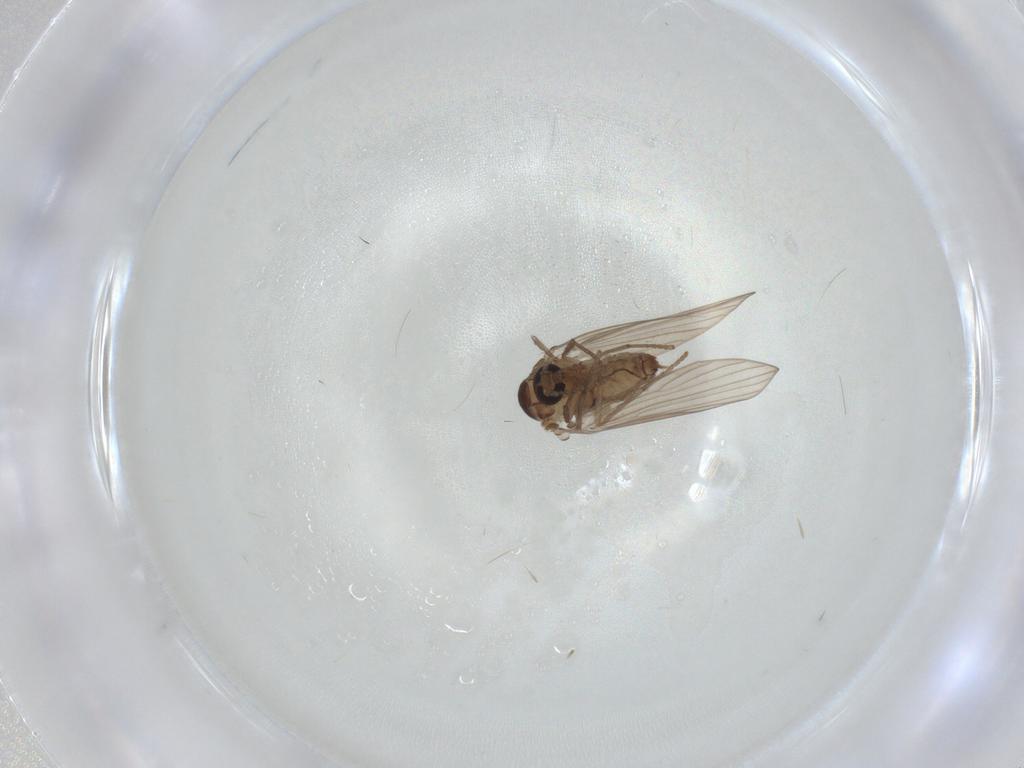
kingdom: Animalia
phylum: Arthropoda
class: Insecta
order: Diptera
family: Psychodidae
